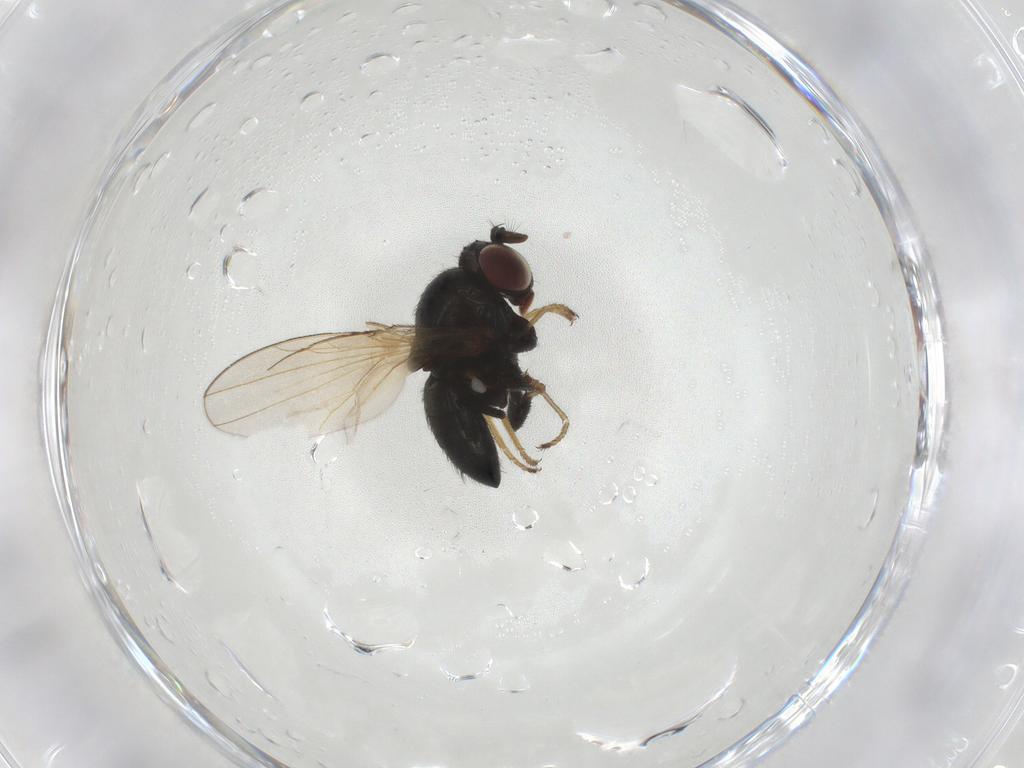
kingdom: Animalia
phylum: Arthropoda
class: Insecta
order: Diptera
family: Ephydridae
